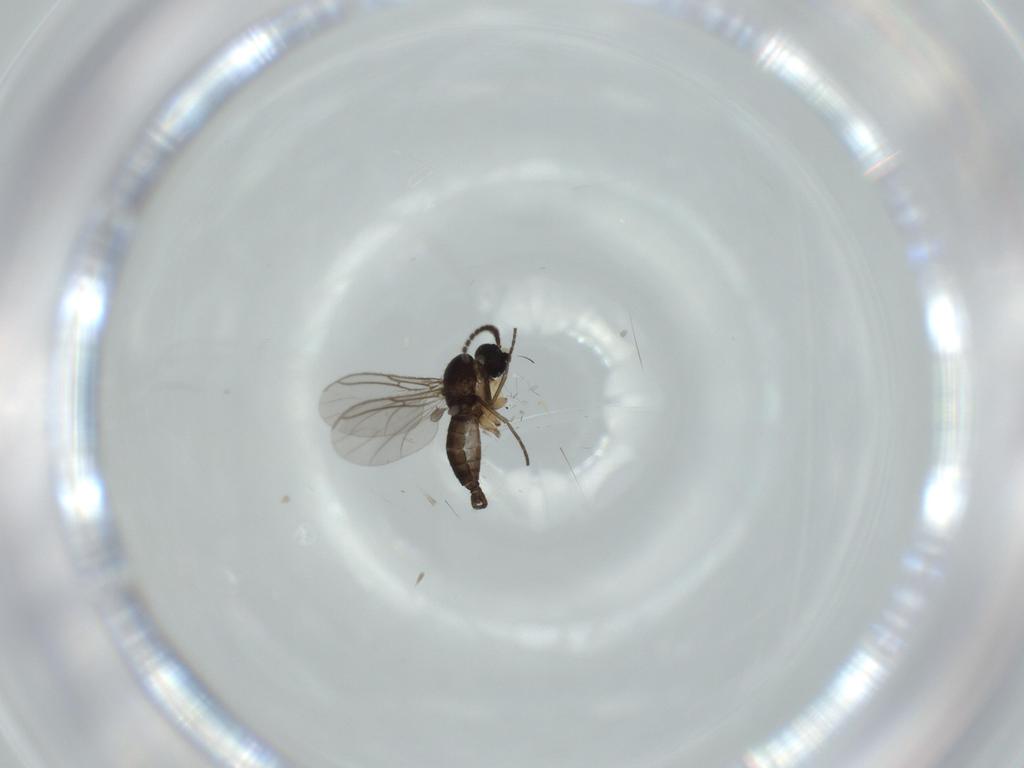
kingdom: Animalia
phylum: Arthropoda
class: Insecta
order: Diptera
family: Sciaridae
